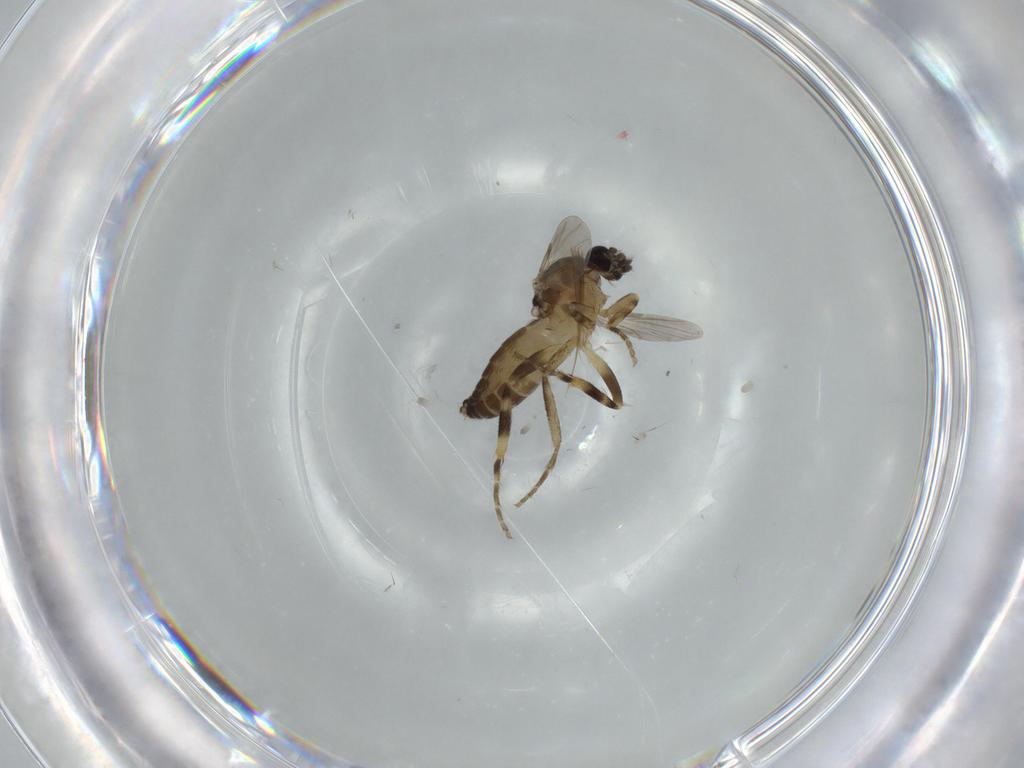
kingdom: Animalia
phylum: Arthropoda
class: Insecta
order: Diptera
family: Ceratopogonidae
